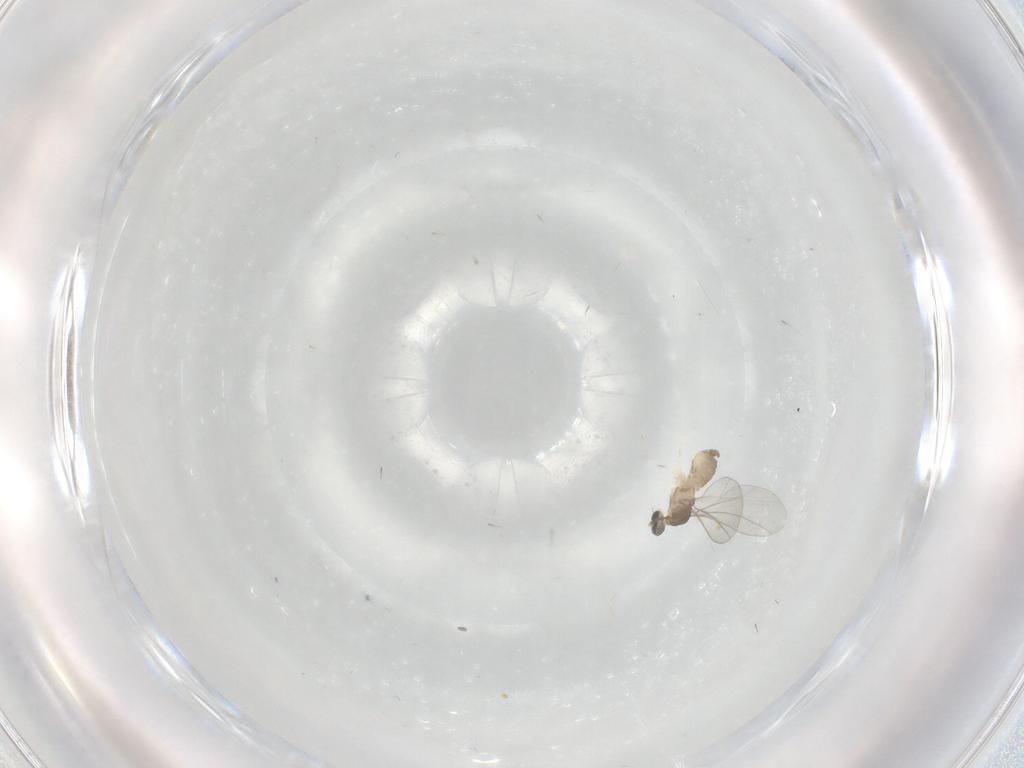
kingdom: Animalia
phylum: Arthropoda
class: Insecta
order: Diptera
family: Cecidomyiidae
